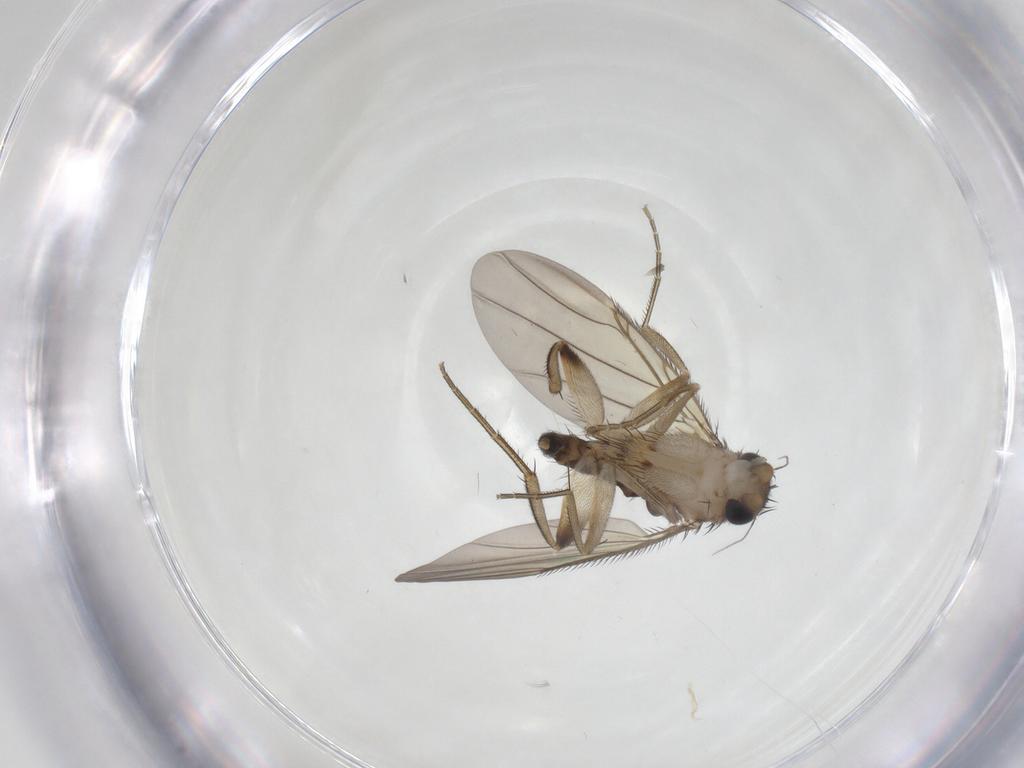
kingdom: Animalia
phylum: Arthropoda
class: Insecta
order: Diptera
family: Phoridae
